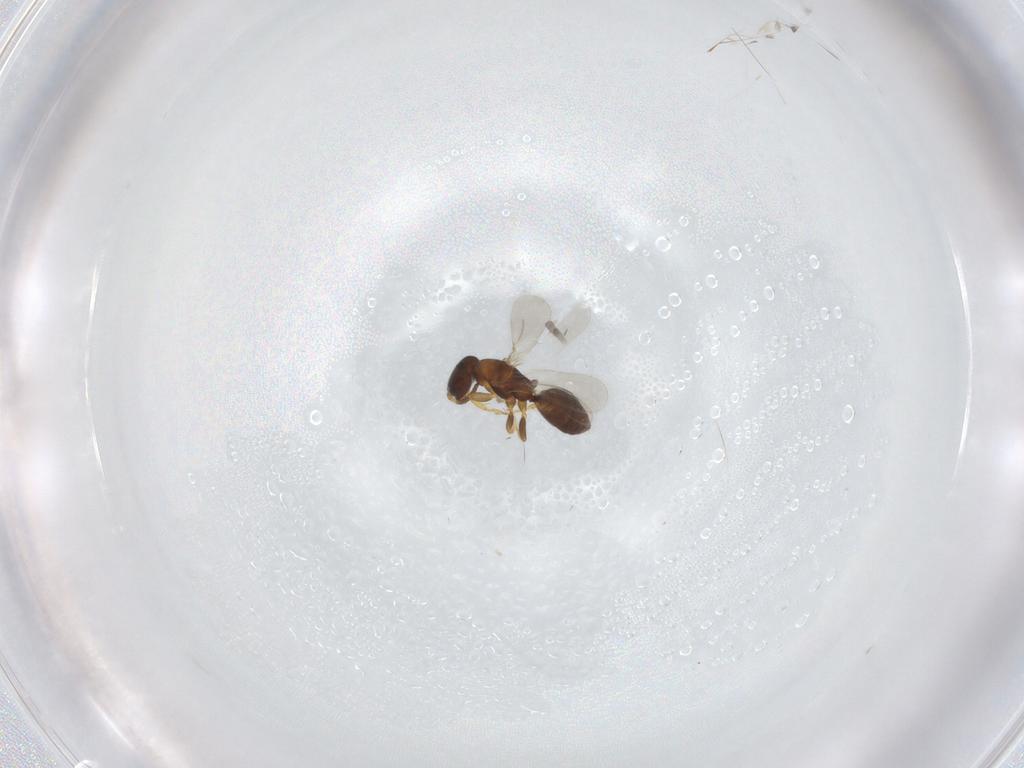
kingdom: Animalia
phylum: Arthropoda
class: Insecta
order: Hymenoptera
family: Bethylidae
